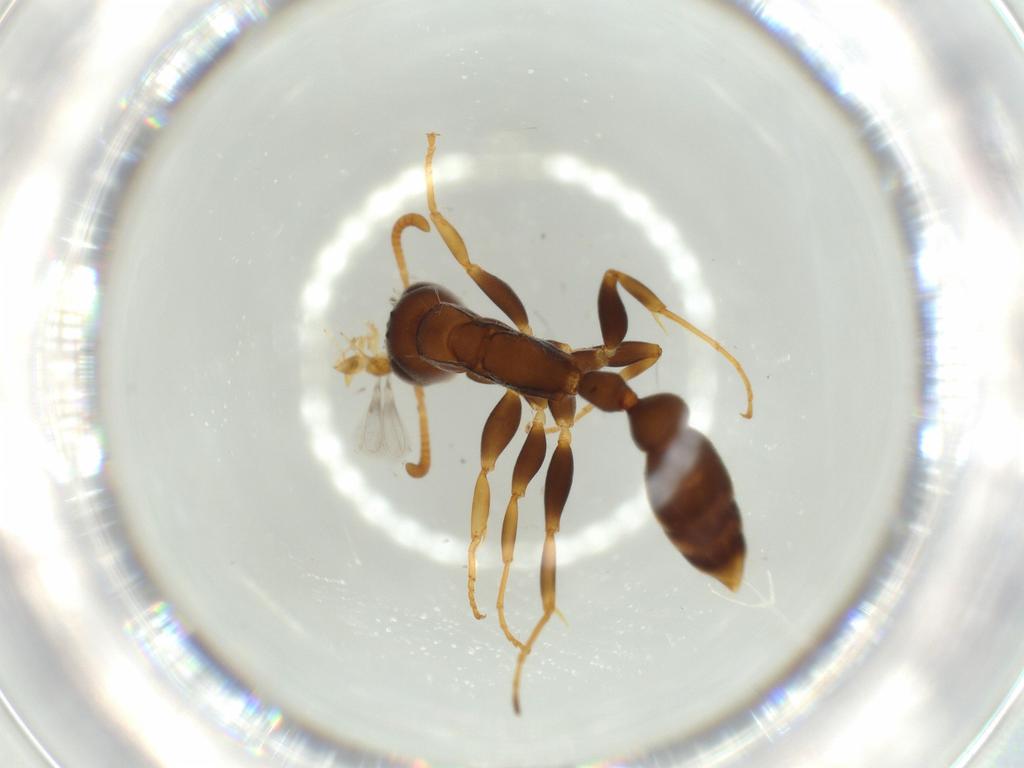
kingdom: Animalia
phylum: Arthropoda
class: Insecta
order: Hymenoptera
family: Formicidae
